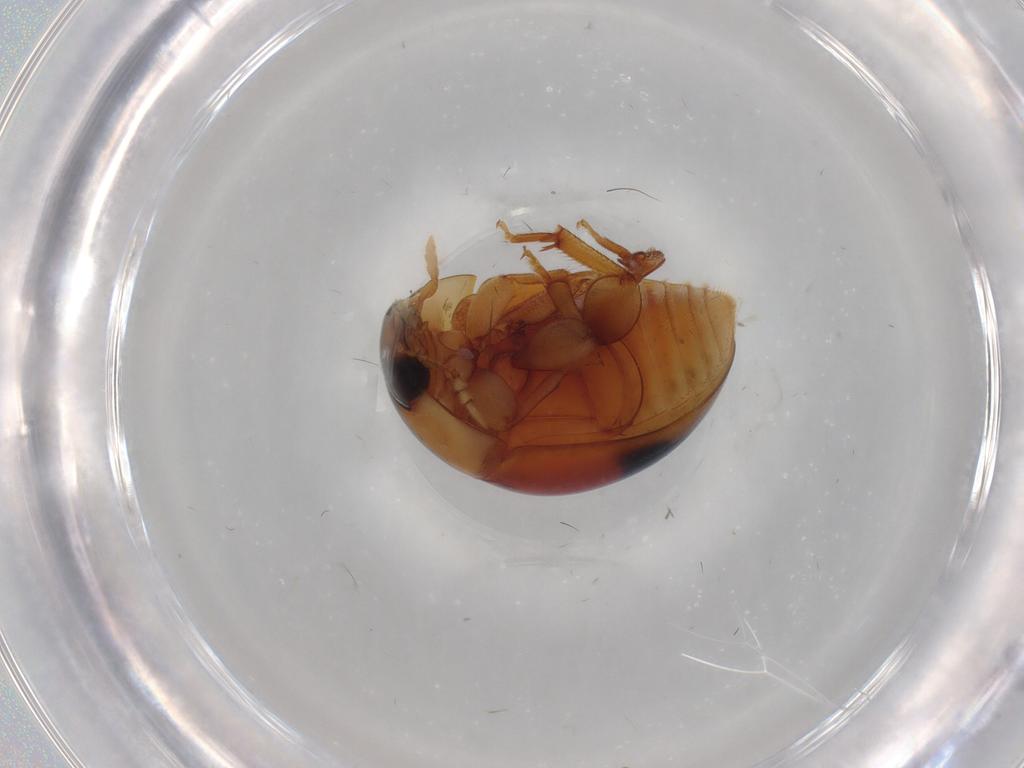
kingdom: Animalia
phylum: Arthropoda
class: Insecta
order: Coleoptera
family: Phalacridae
